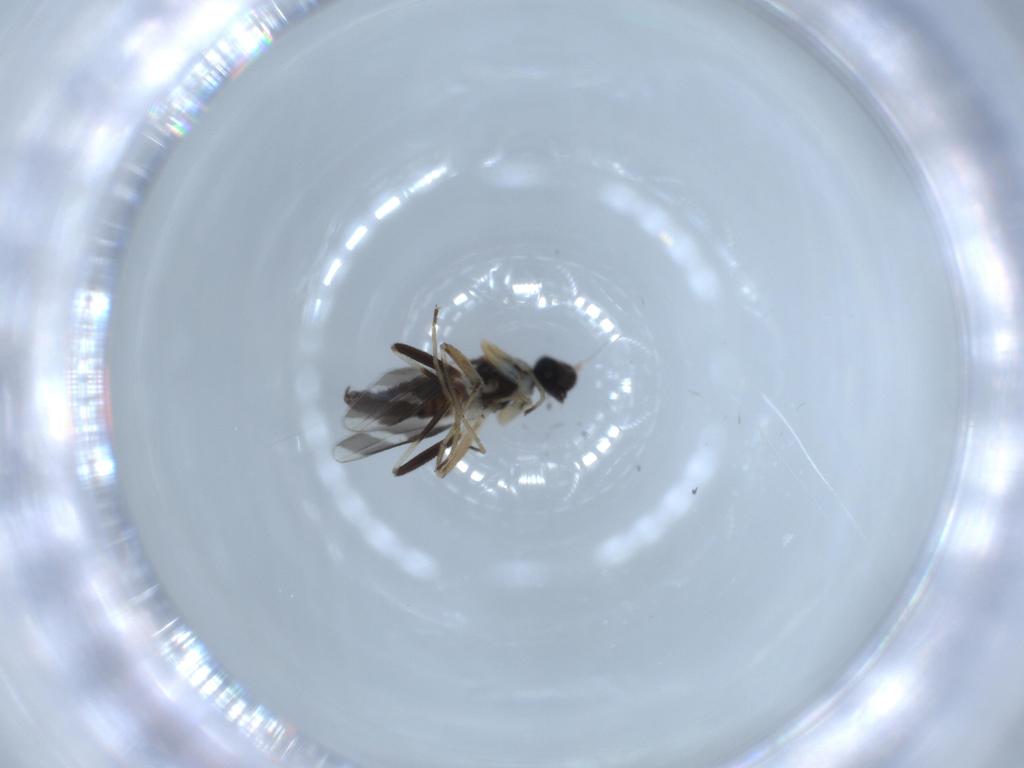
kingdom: Animalia
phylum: Arthropoda
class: Insecta
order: Diptera
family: Hybotidae
